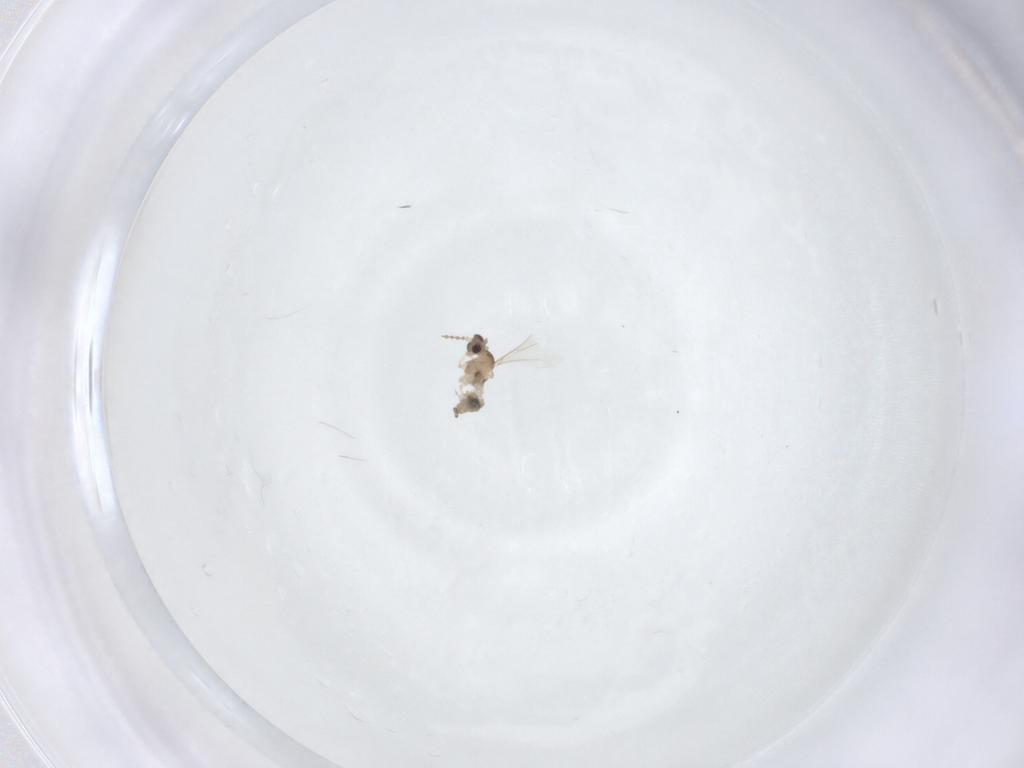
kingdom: Animalia
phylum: Arthropoda
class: Insecta
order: Diptera
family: Cecidomyiidae
